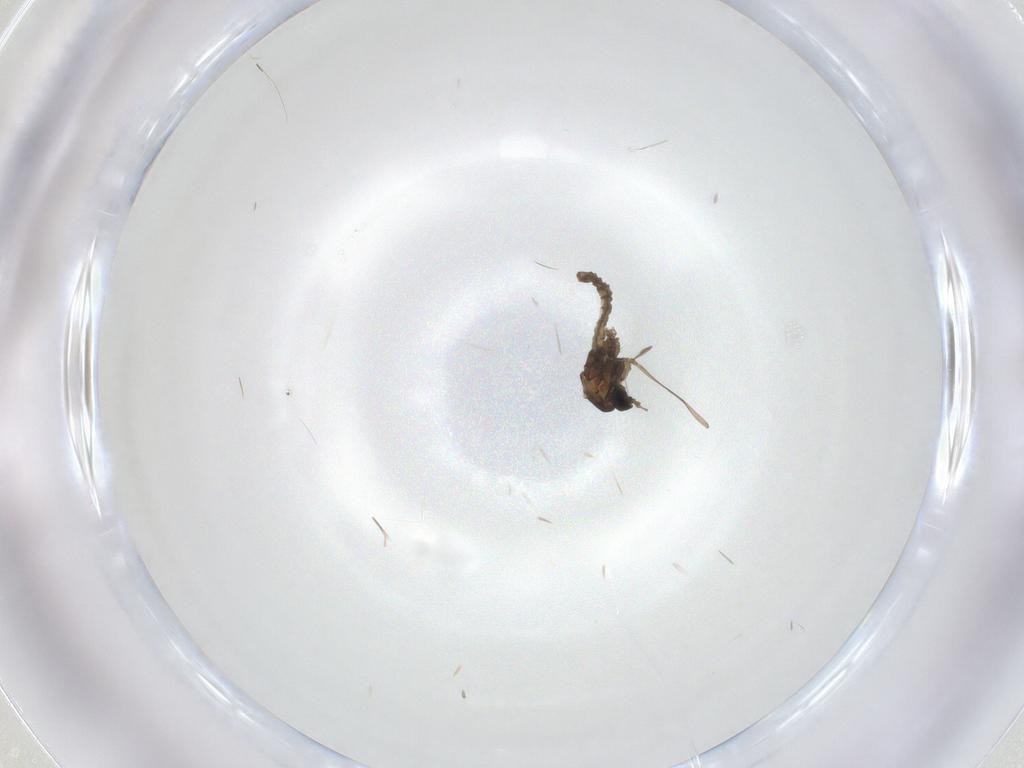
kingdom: Animalia
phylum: Arthropoda
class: Insecta
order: Diptera
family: Cecidomyiidae
